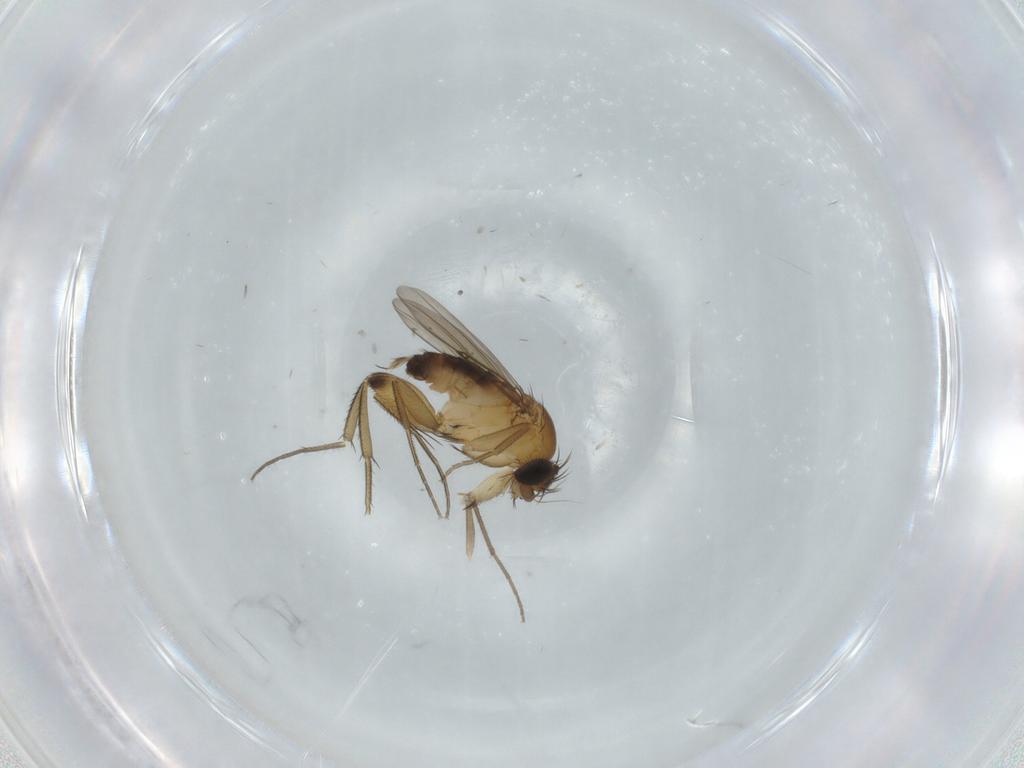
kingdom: Animalia
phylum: Arthropoda
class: Insecta
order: Diptera
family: Phoridae
